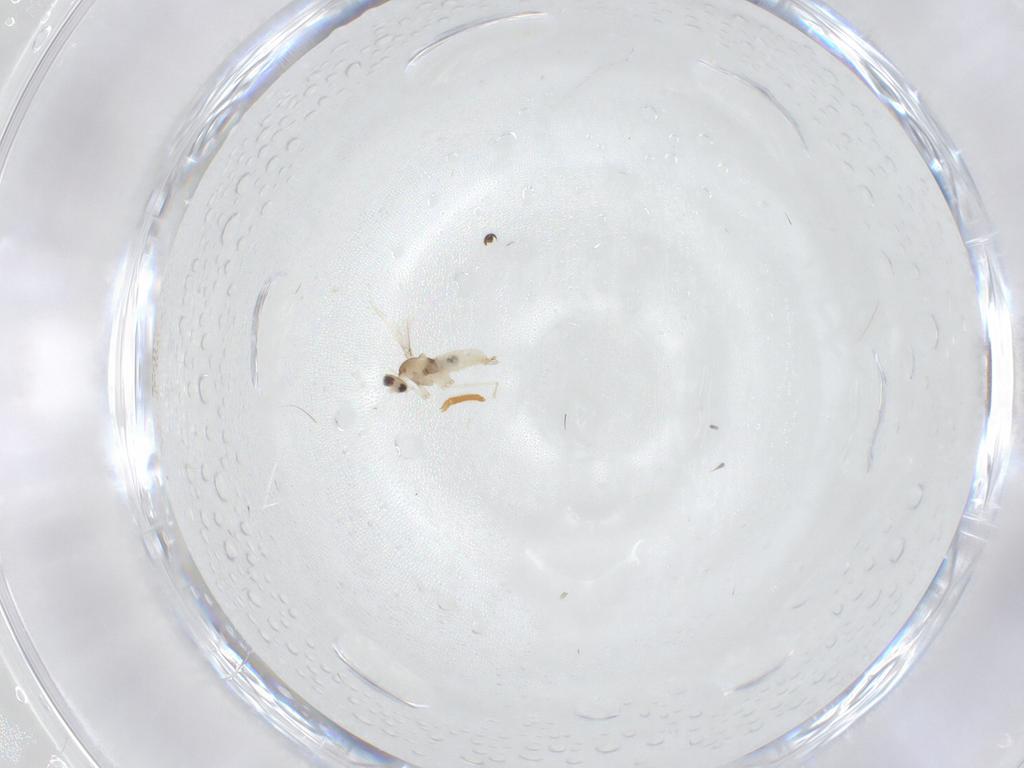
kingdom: Animalia
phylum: Arthropoda
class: Insecta
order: Diptera
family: Cecidomyiidae
